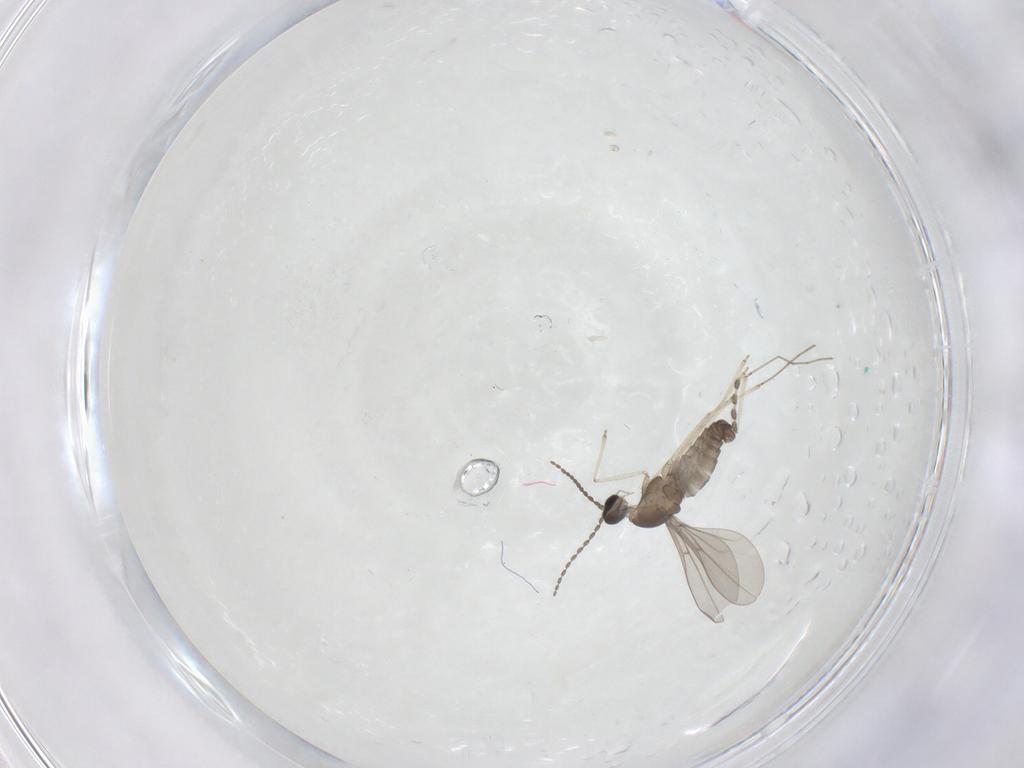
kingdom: Animalia
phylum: Arthropoda
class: Insecta
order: Diptera
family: Cecidomyiidae
